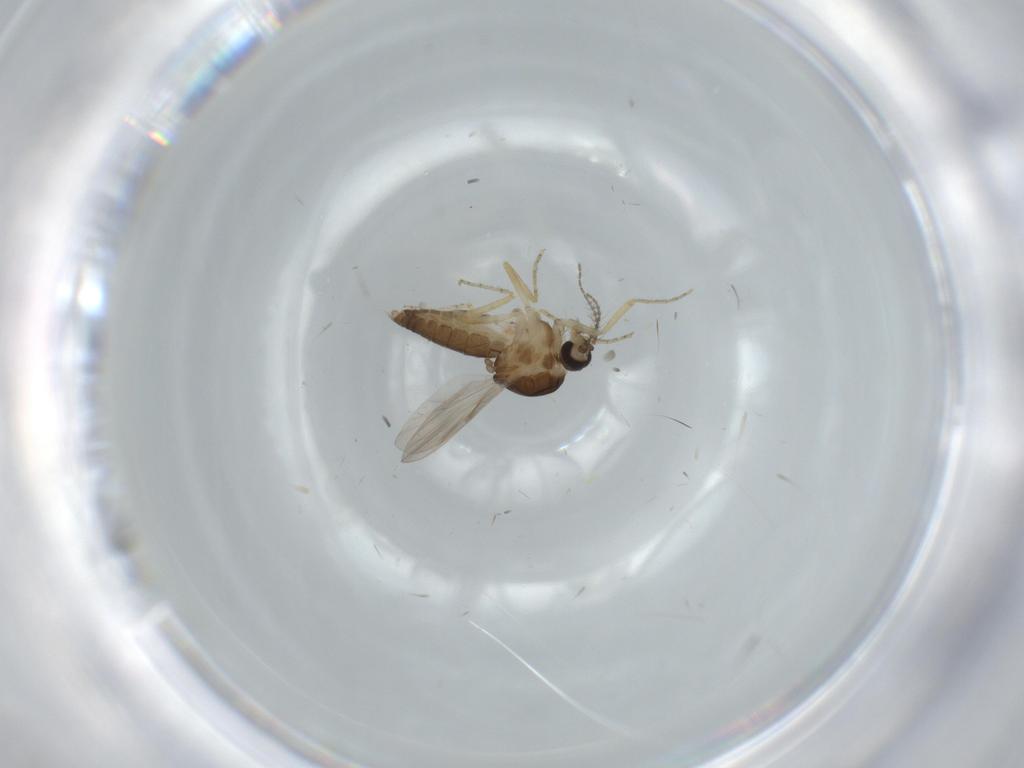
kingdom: Animalia
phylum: Arthropoda
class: Insecta
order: Diptera
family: Milichiidae
